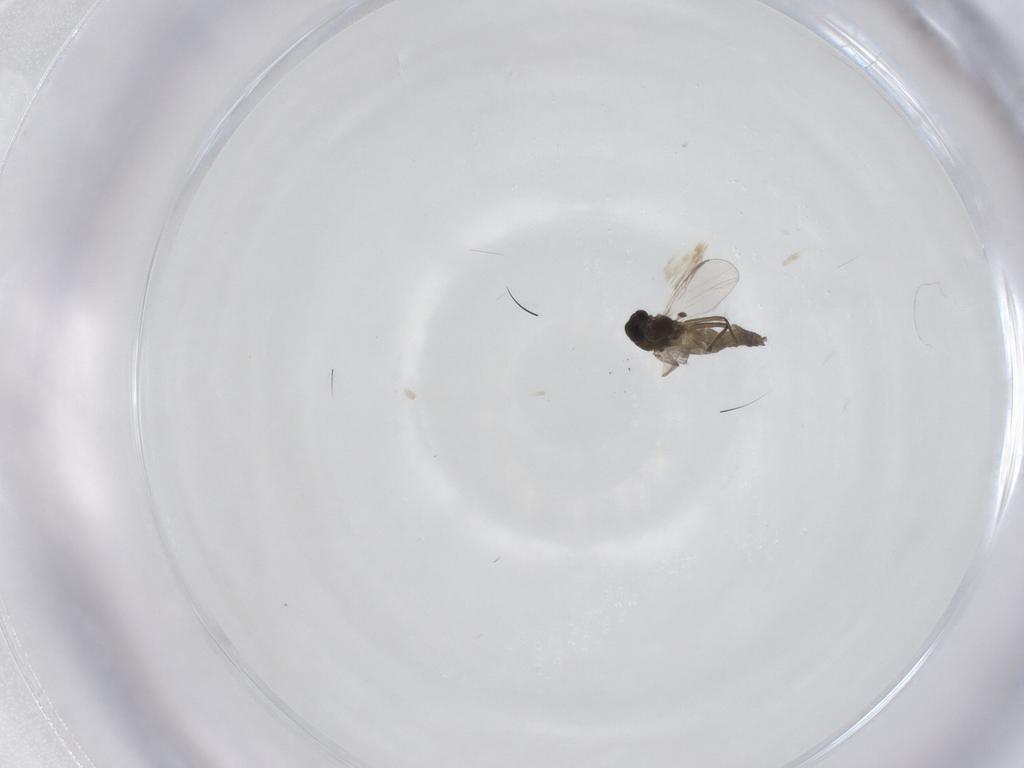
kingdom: Animalia
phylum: Arthropoda
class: Insecta
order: Diptera
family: Chironomidae
